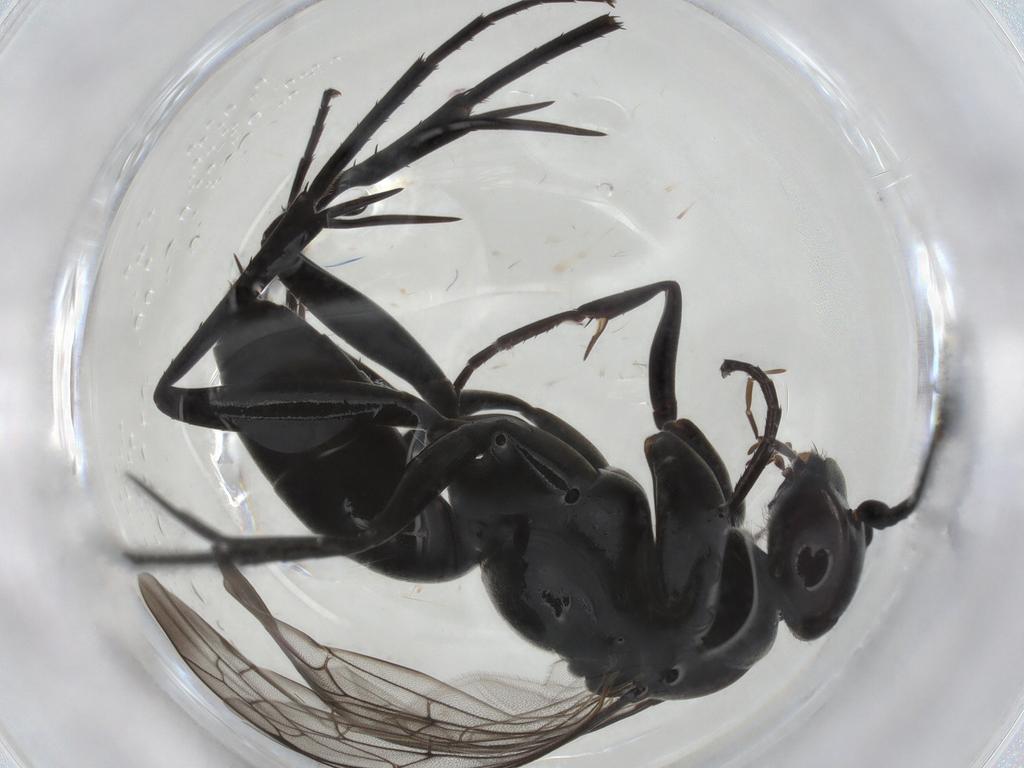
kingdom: Animalia
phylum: Arthropoda
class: Insecta
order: Hymenoptera
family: Pompilidae
